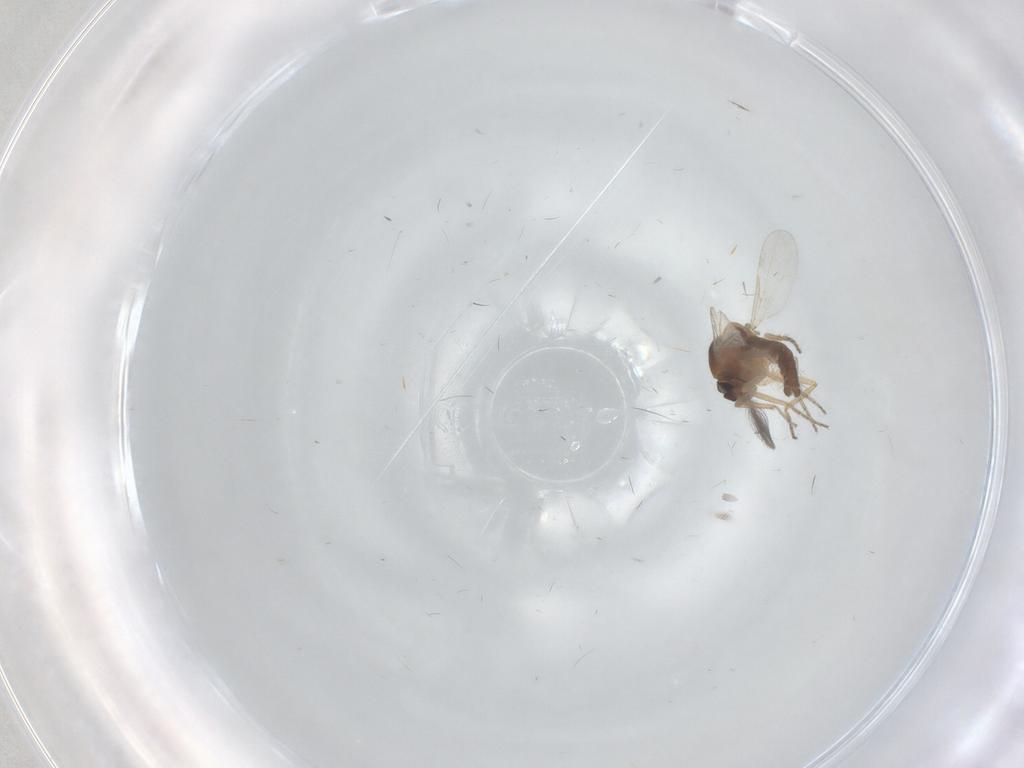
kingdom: Animalia
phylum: Arthropoda
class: Insecta
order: Diptera
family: Ceratopogonidae
